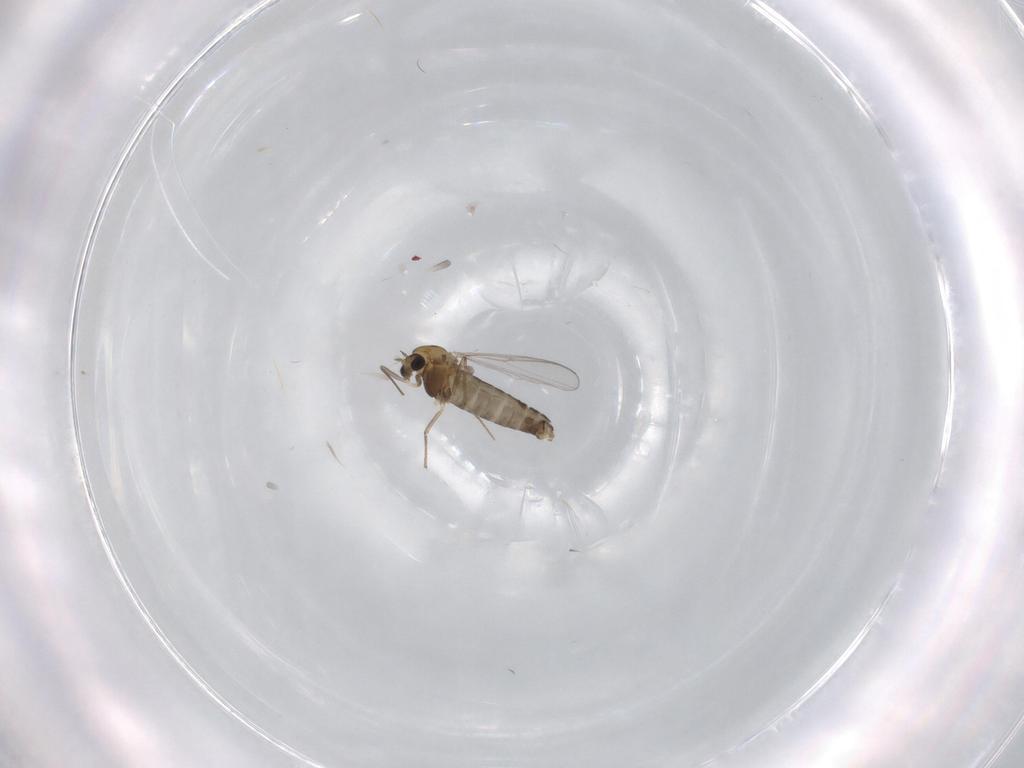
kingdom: Animalia
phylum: Arthropoda
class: Insecta
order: Diptera
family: Chironomidae
